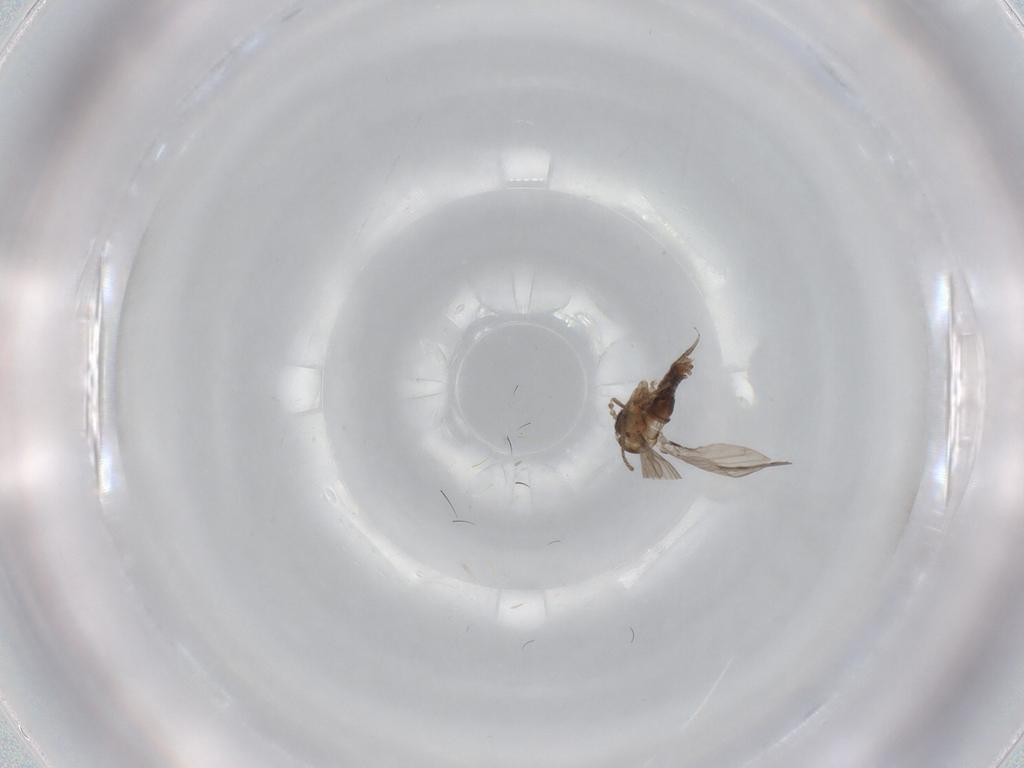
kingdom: Animalia
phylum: Arthropoda
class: Insecta
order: Diptera
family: Psychodidae
